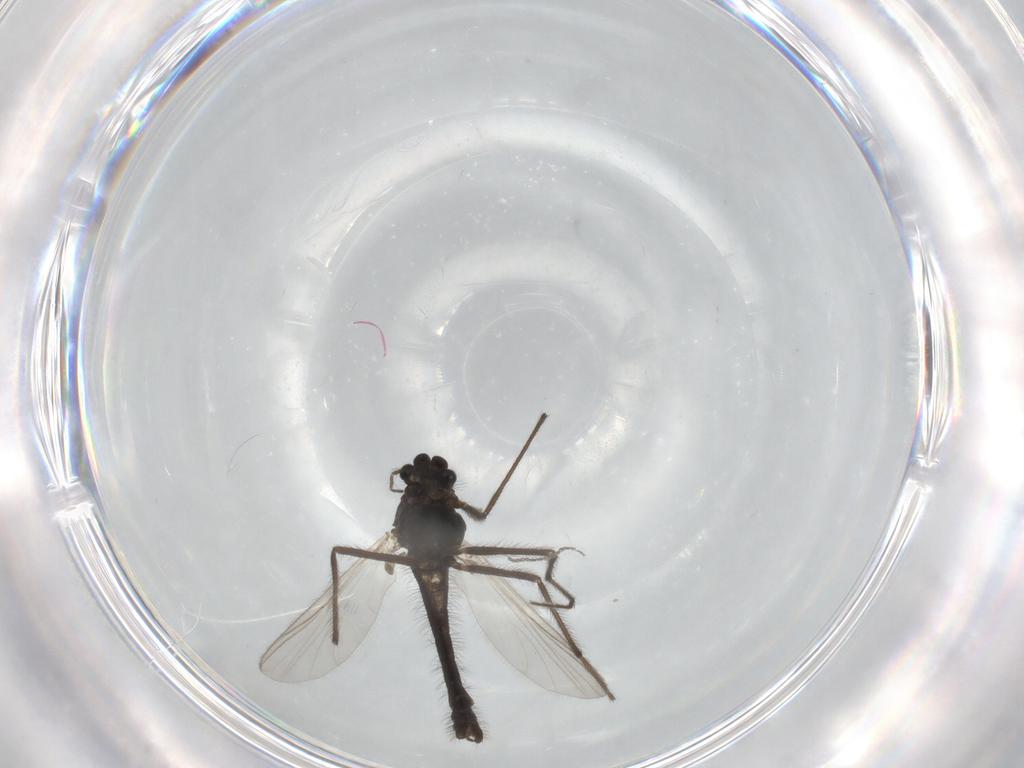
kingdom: Animalia
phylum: Arthropoda
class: Insecta
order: Diptera
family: Chironomidae
